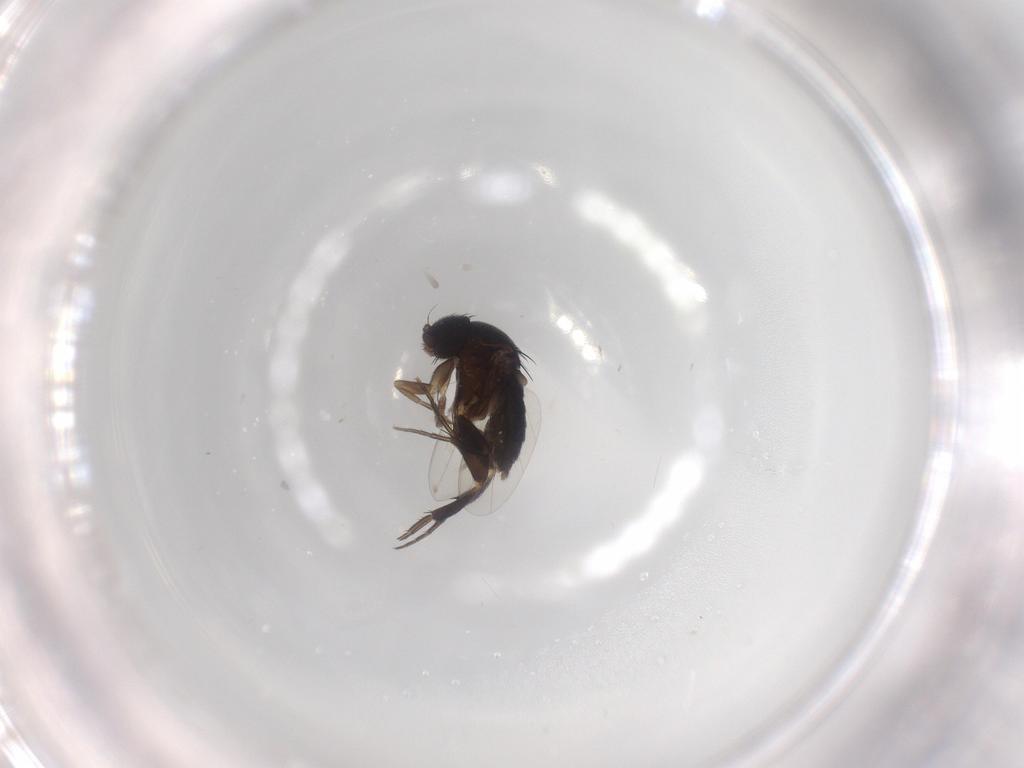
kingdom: Animalia
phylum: Arthropoda
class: Insecta
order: Diptera
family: Phoridae
